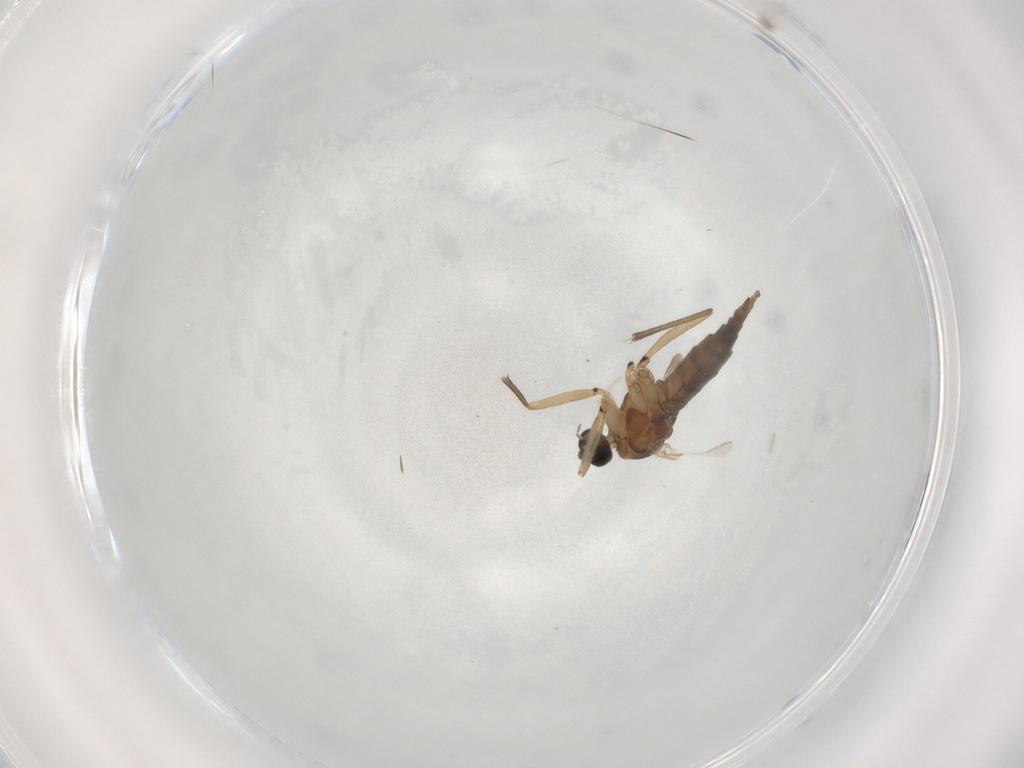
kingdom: Animalia
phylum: Arthropoda
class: Insecta
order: Diptera
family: Sciaridae
